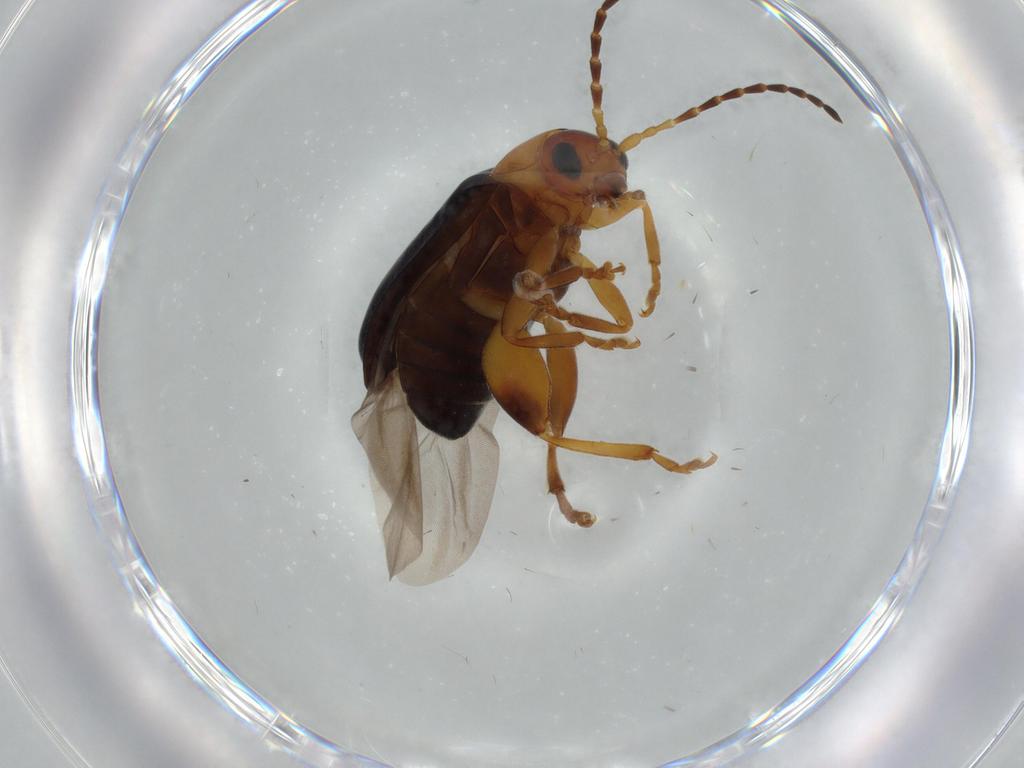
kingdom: Animalia
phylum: Arthropoda
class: Insecta
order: Coleoptera
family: Chrysomelidae
